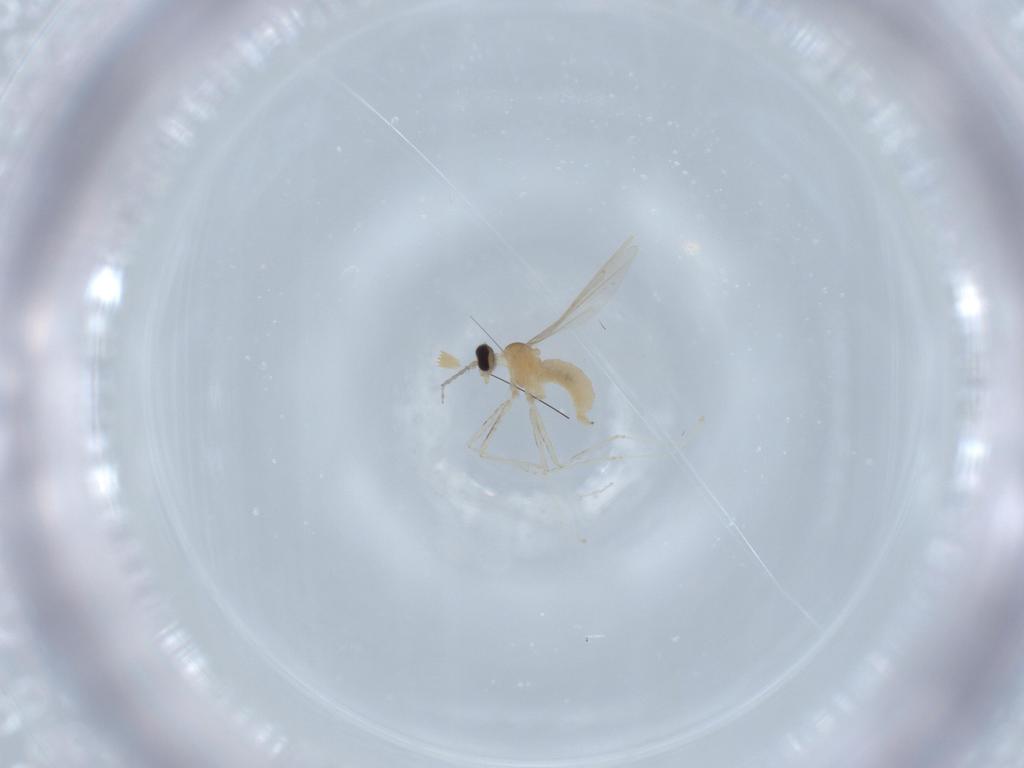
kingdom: Animalia
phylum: Arthropoda
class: Insecta
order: Diptera
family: Cecidomyiidae
